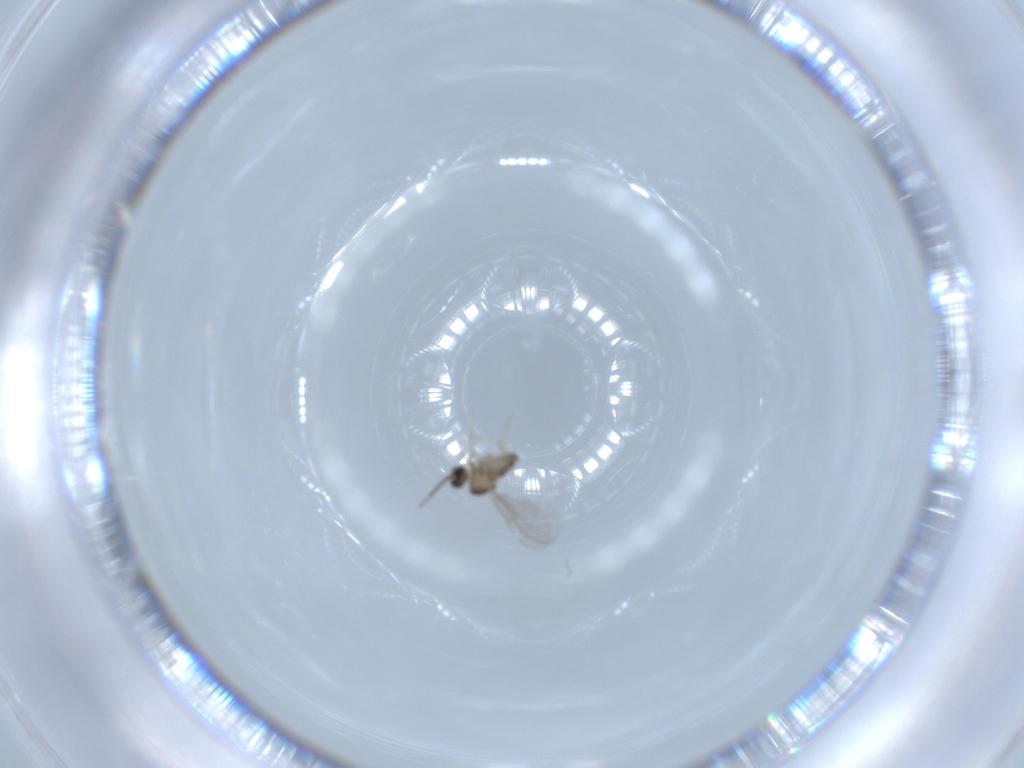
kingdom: Animalia
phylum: Arthropoda
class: Insecta
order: Diptera
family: Cecidomyiidae
